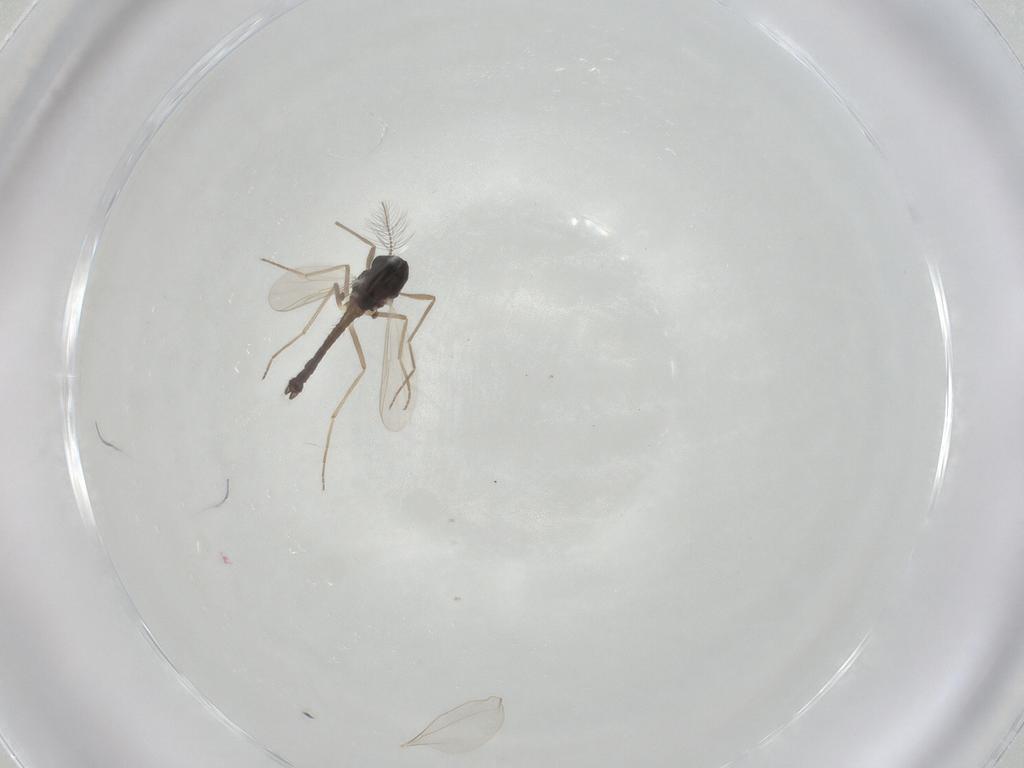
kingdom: Animalia
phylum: Arthropoda
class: Insecta
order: Diptera
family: Chironomidae
